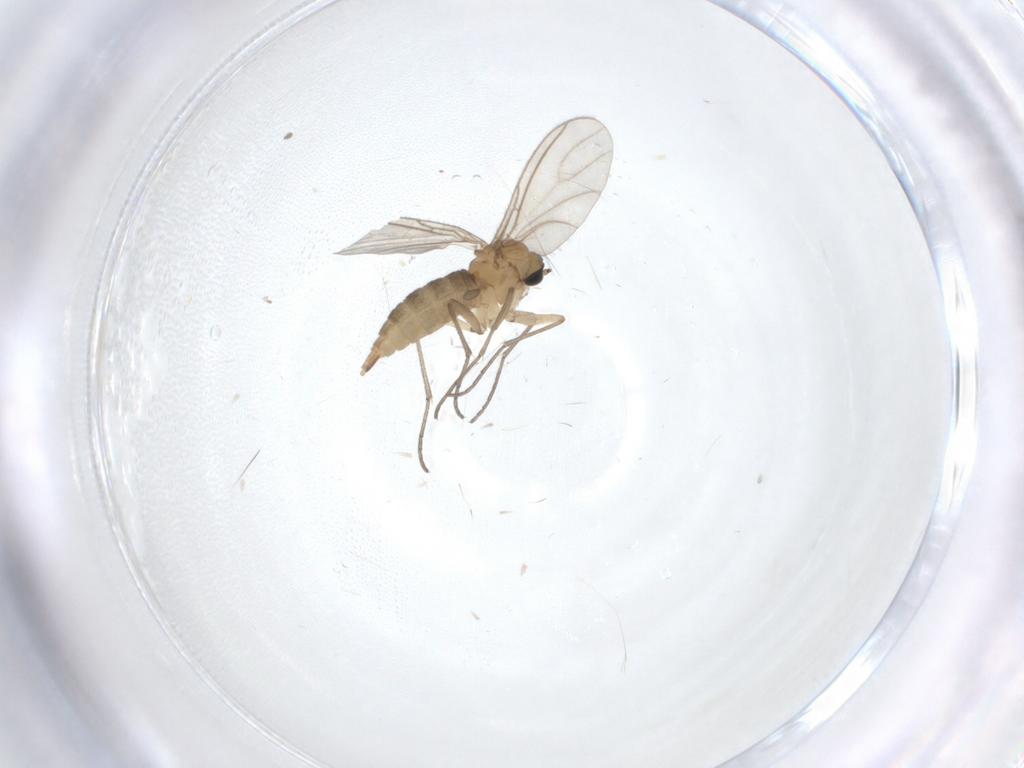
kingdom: Animalia
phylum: Arthropoda
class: Insecta
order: Diptera
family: Sciaridae
